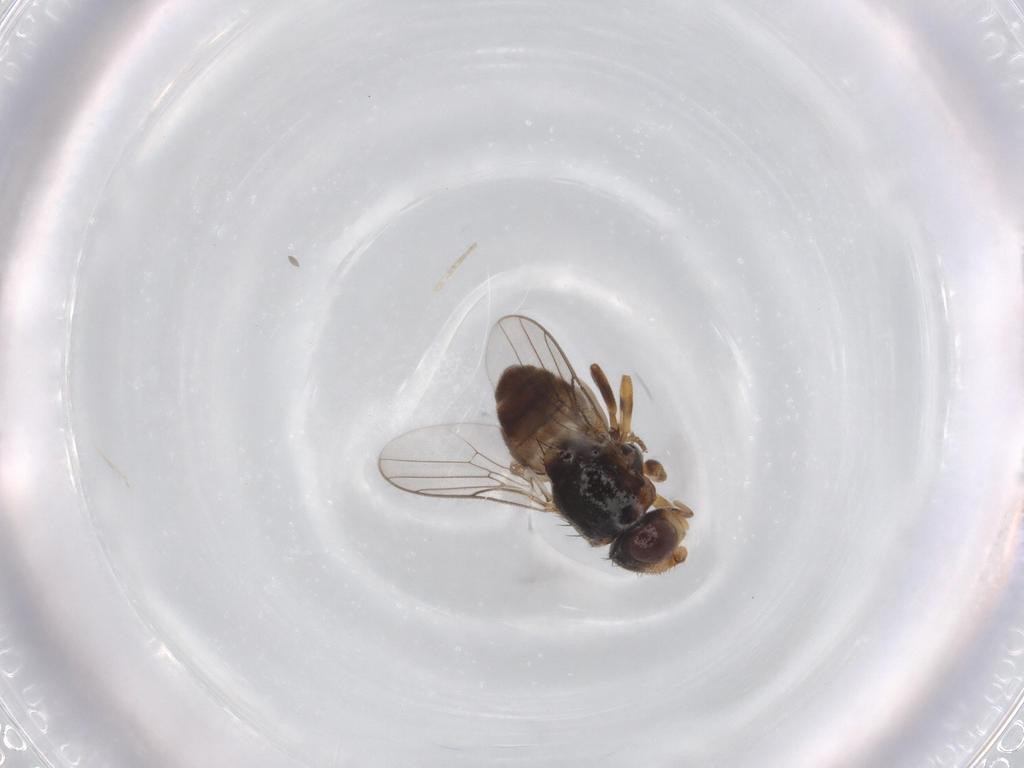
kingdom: Animalia
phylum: Arthropoda
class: Insecta
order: Diptera
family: Chloropidae
